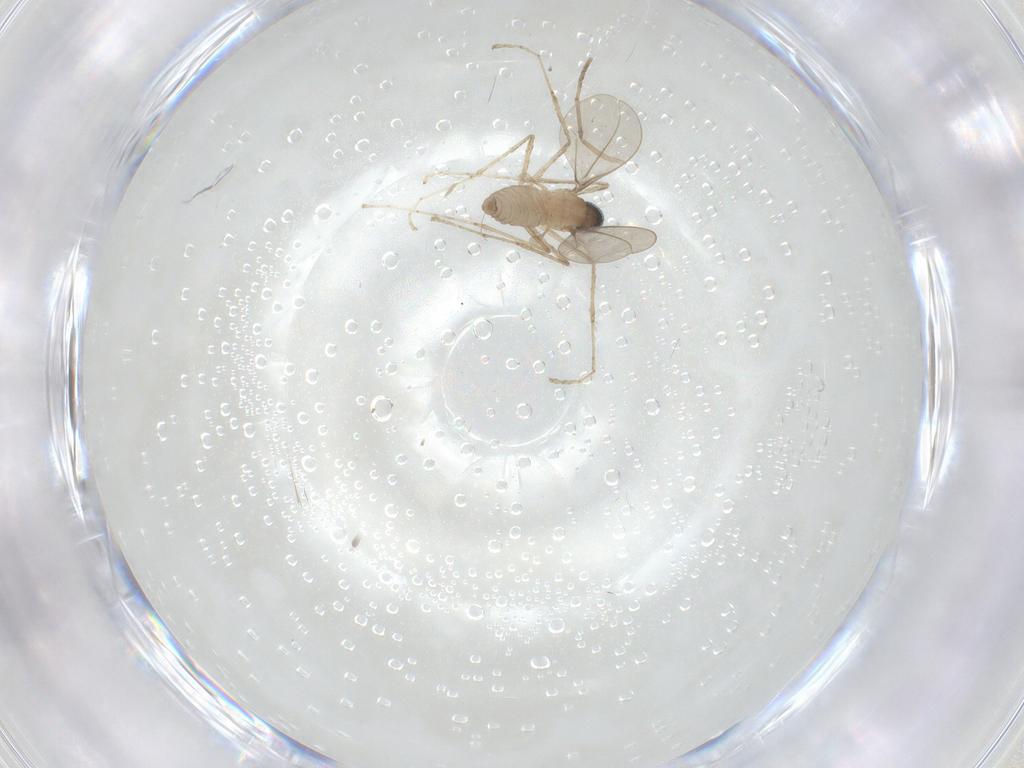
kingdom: Animalia
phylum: Arthropoda
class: Insecta
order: Diptera
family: Cecidomyiidae
